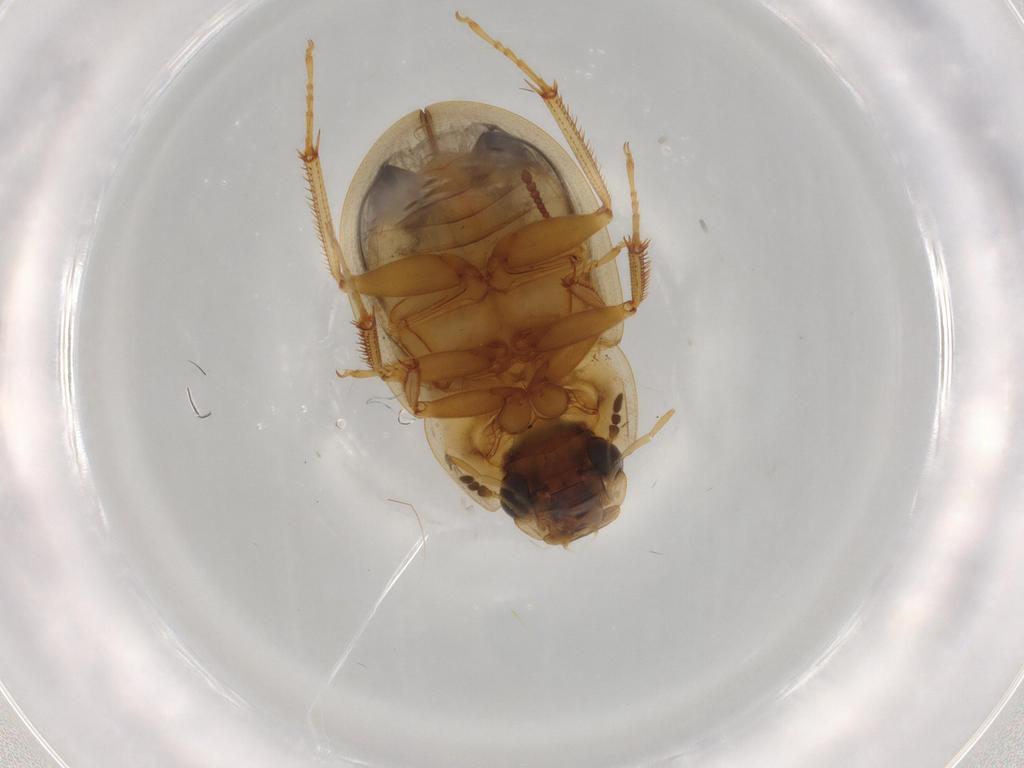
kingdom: Animalia
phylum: Arthropoda
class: Insecta
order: Coleoptera
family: Hydrophilidae
